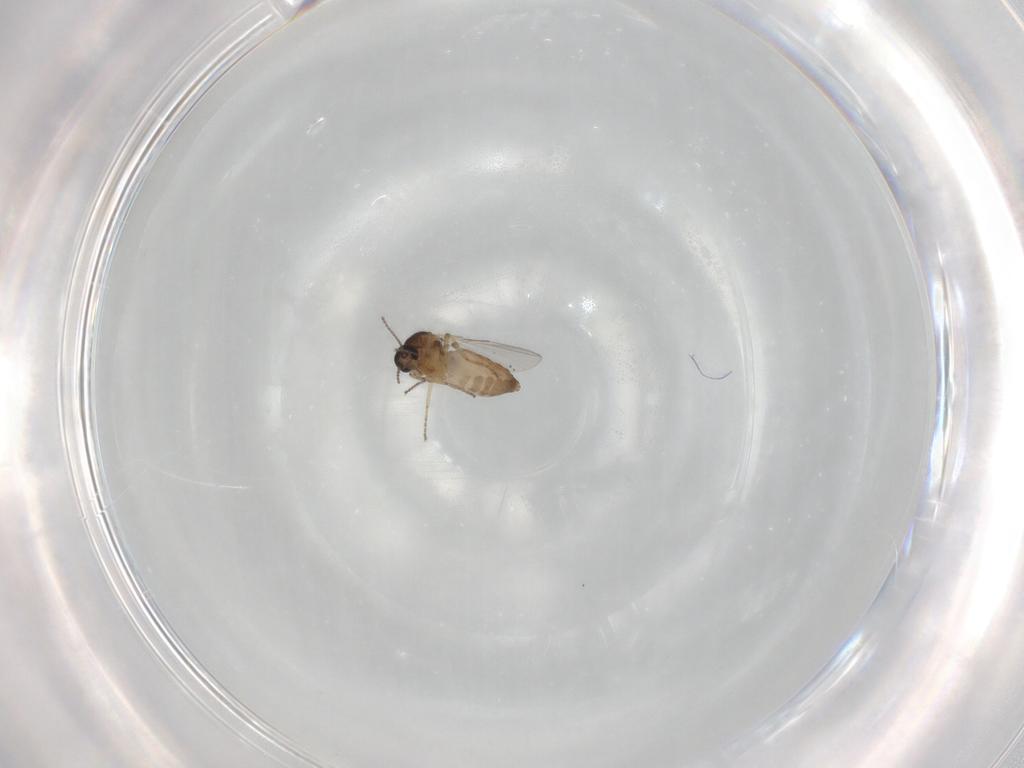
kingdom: Animalia
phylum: Arthropoda
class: Insecta
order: Diptera
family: Ceratopogonidae
